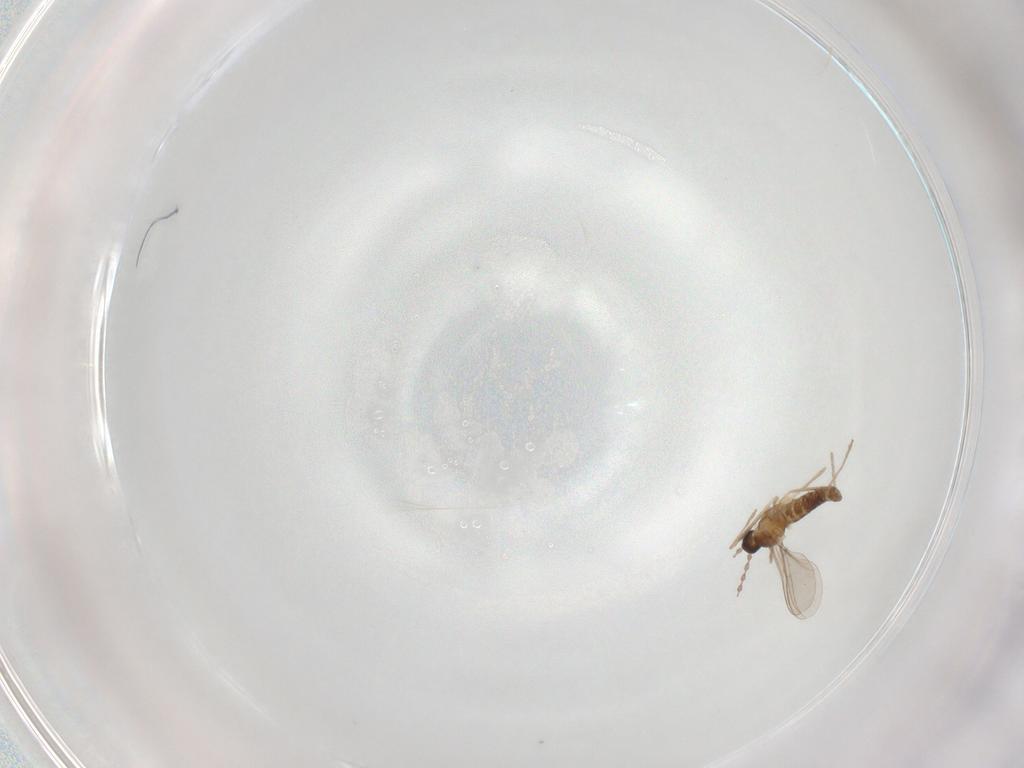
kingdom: Animalia
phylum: Arthropoda
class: Insecta
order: Diptera
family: Cecidomyiidae
